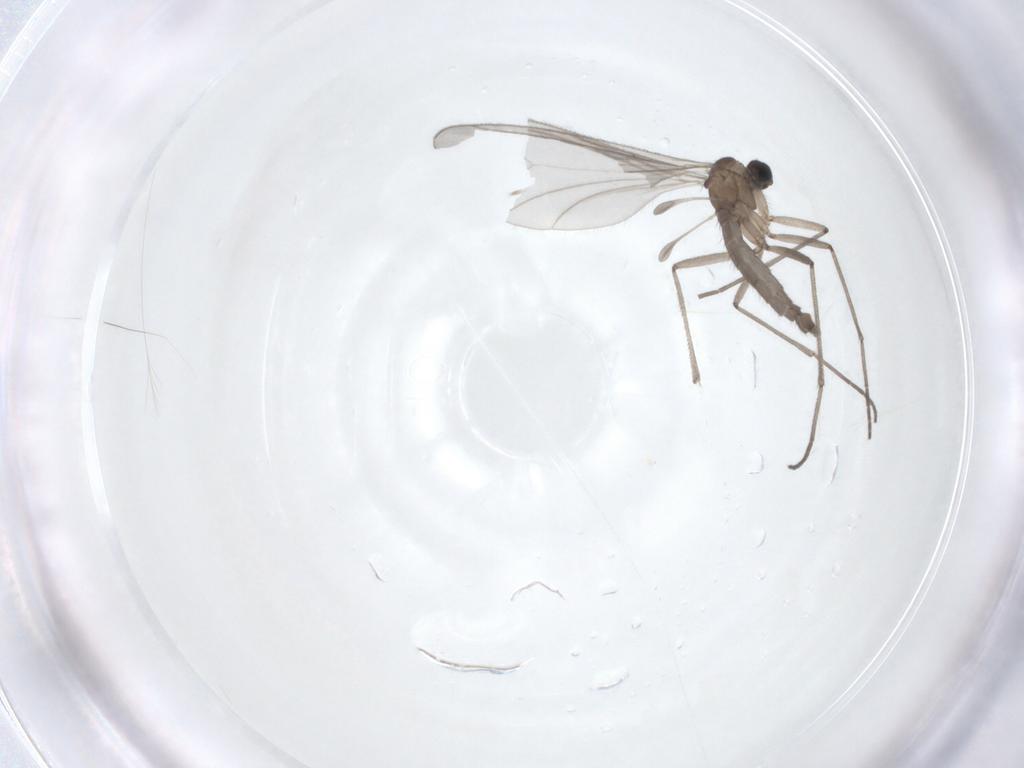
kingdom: Animalia
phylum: Arthropoda
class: Insecta
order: Diptera
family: Sciaridae
